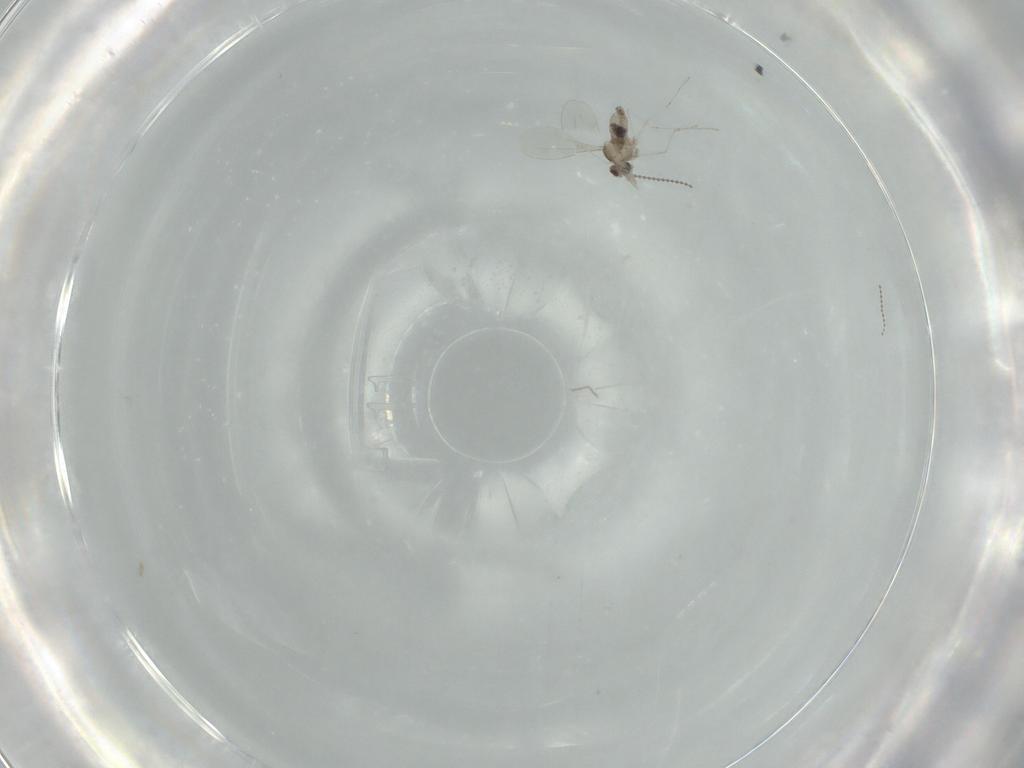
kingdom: Animalia
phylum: Arthropoda
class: Insecta
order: Diptera
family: Cecidomyiidae
